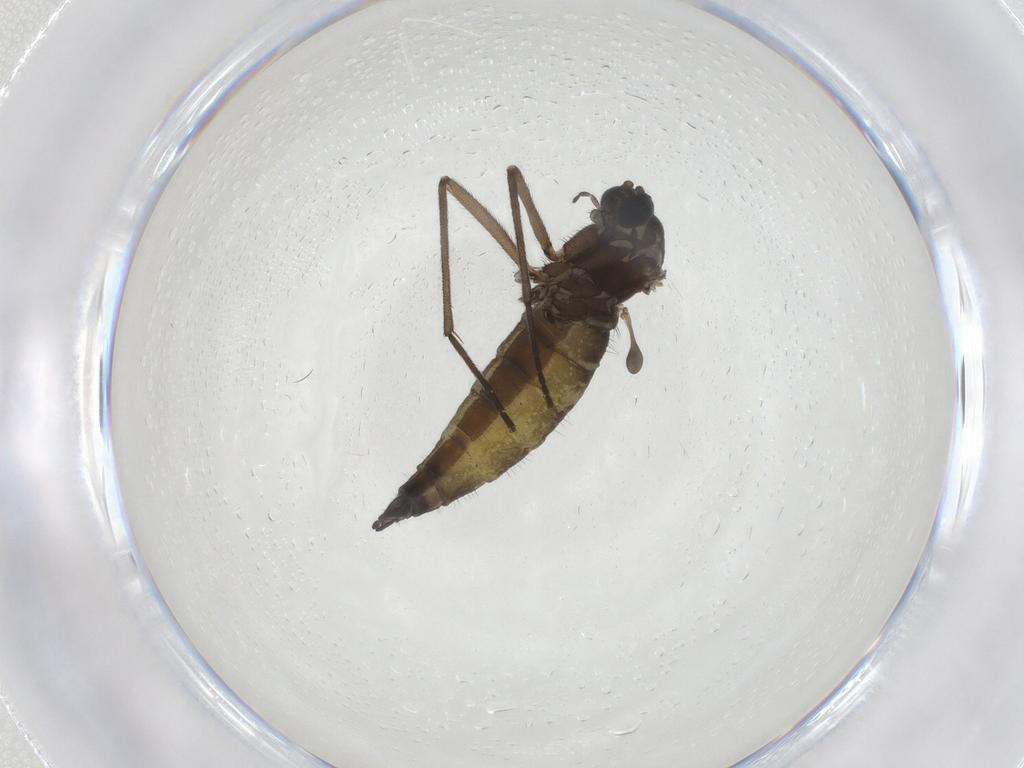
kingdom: Animalia
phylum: Arthropoda
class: Insecta
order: Diptera
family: Sciaridae
